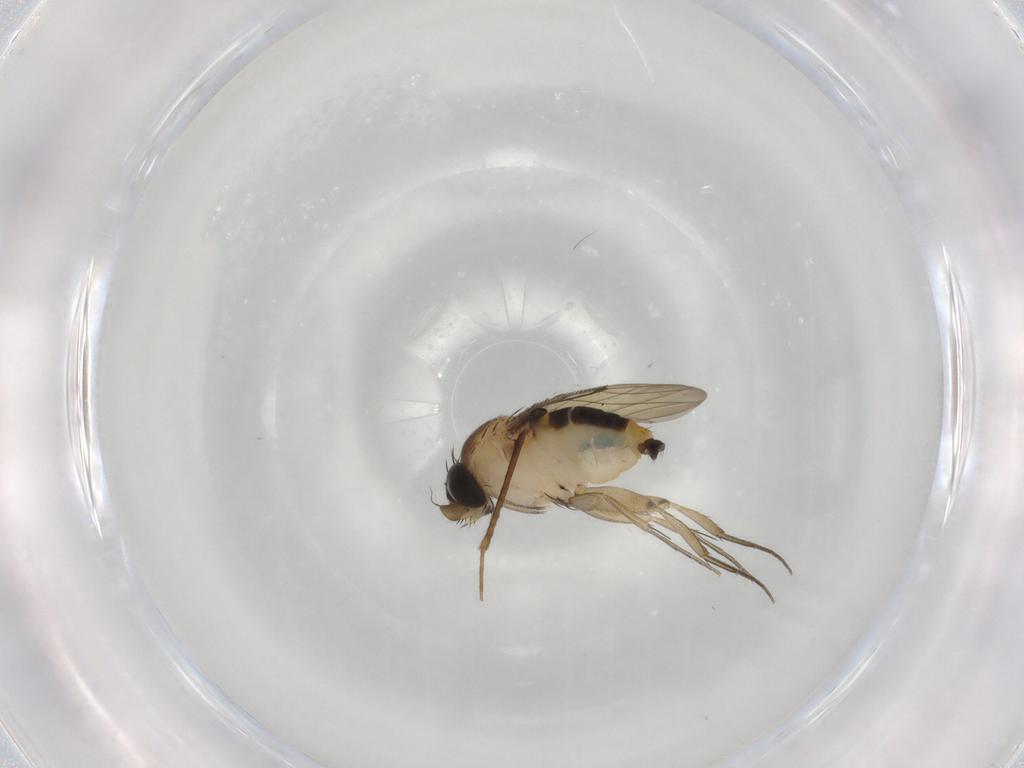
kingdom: Animalia
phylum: Arthropoda
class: Insecta
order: Diptera
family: Phoridae
